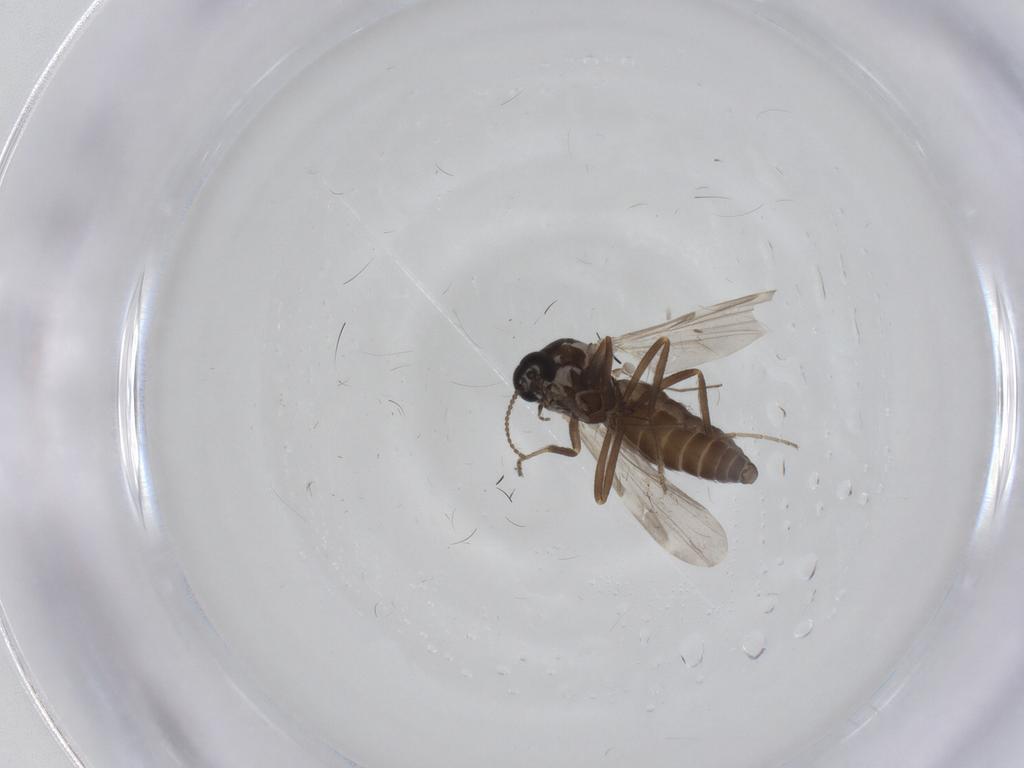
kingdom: Animalia
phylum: Arthropoda
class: Insecta
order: Diptera
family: Ceratopogonidae
